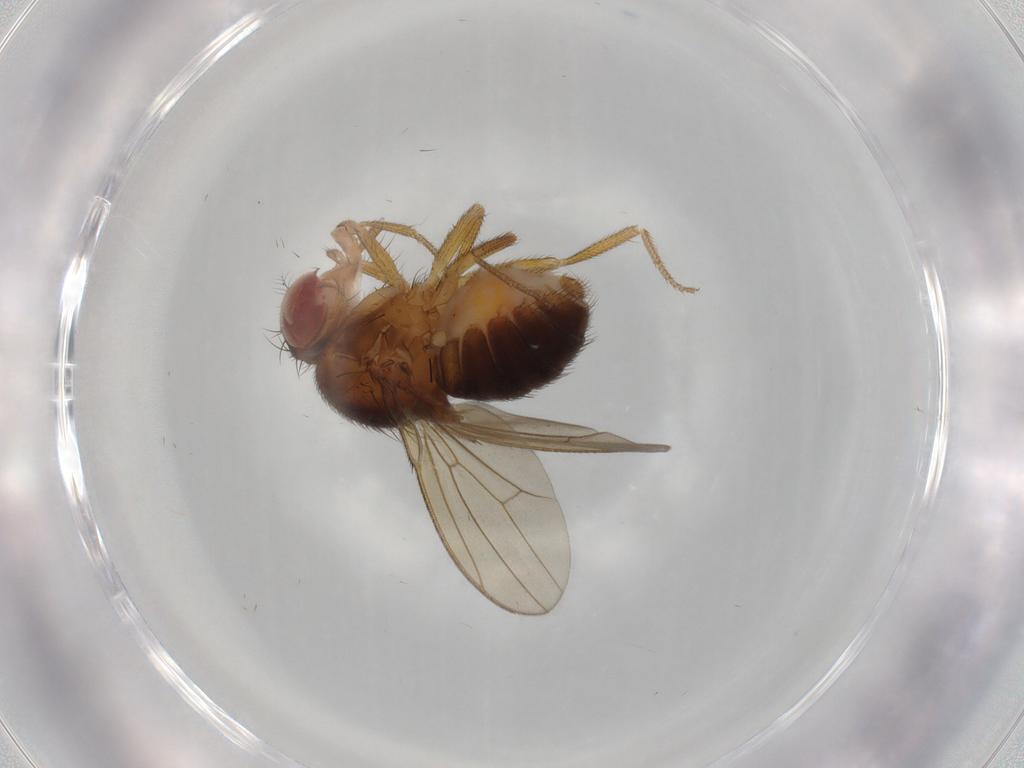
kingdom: Animalia
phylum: Arthropoda
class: Insecta
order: Diptera
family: Drosophilidae
